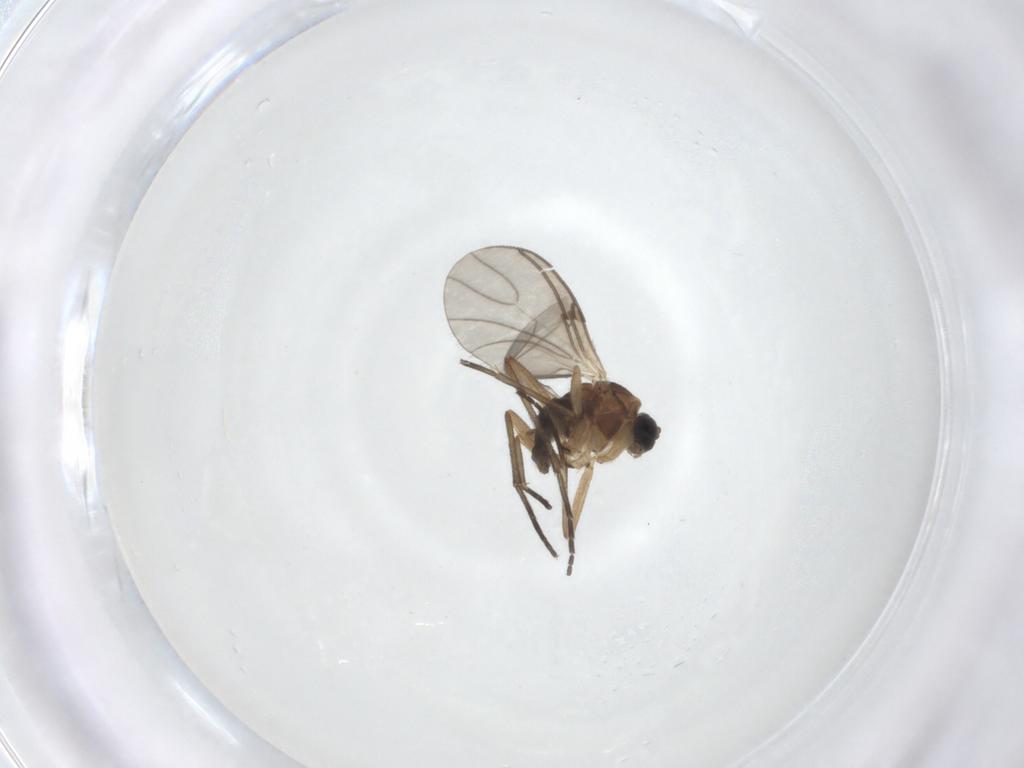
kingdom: Animalia
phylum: Arthropoda
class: Insecta
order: Diptera
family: Sciaridae
